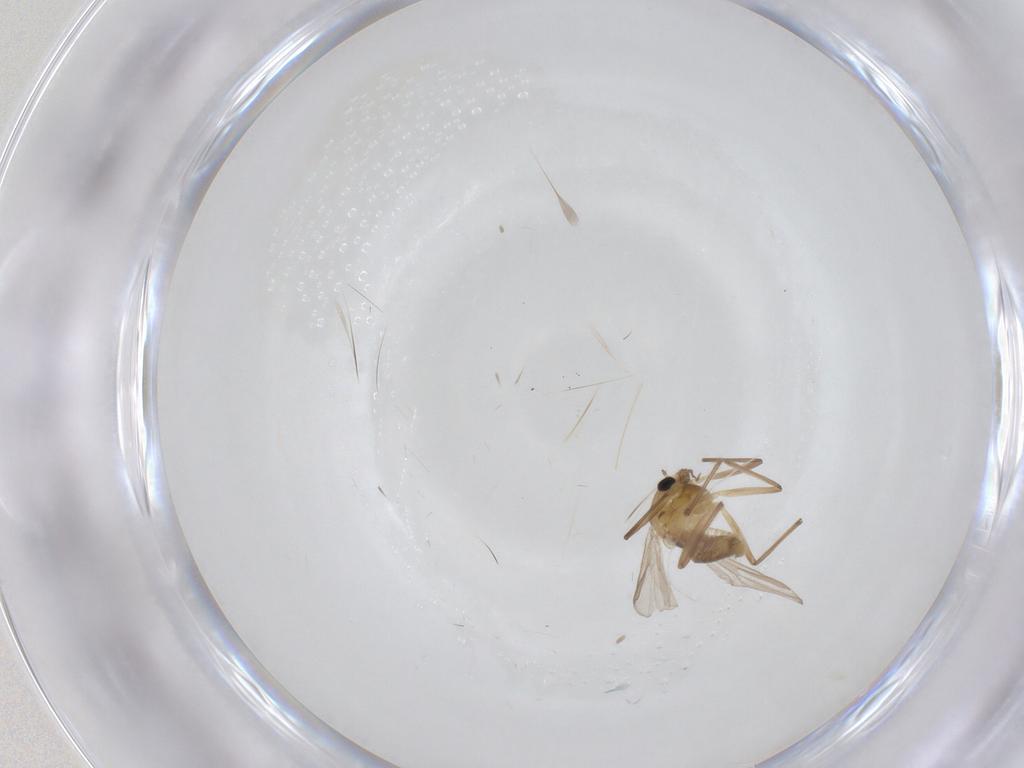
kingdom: Animalia
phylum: Arthropoda
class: Insecta
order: Diptera
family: Chironomidae
